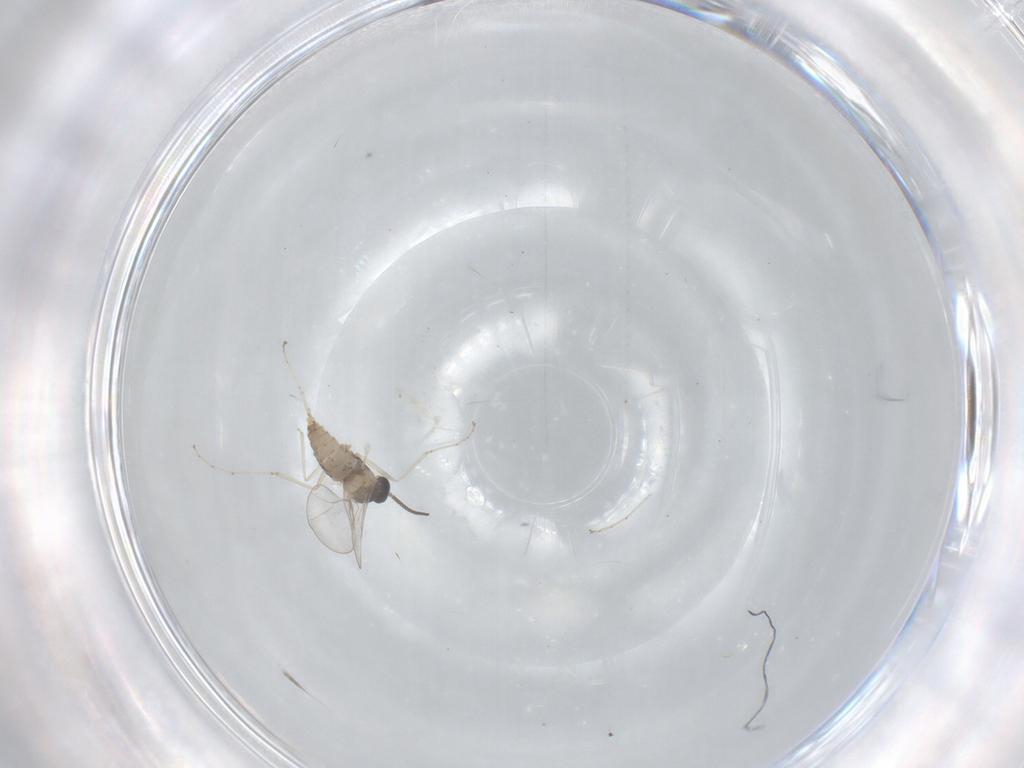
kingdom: Animalia
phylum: Arthropoda
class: Insecta
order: Diptera
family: Cecidomyiidae
